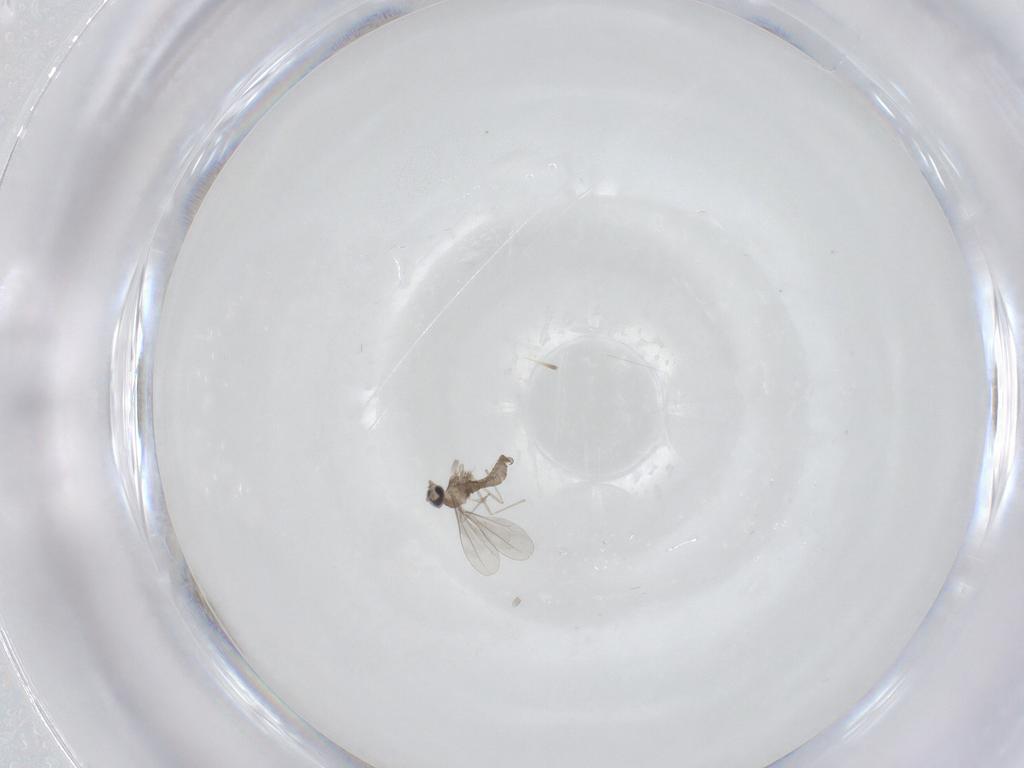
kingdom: Animalia
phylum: Arthropoda
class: Insecta
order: Diptera
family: Cecidomyiidae
